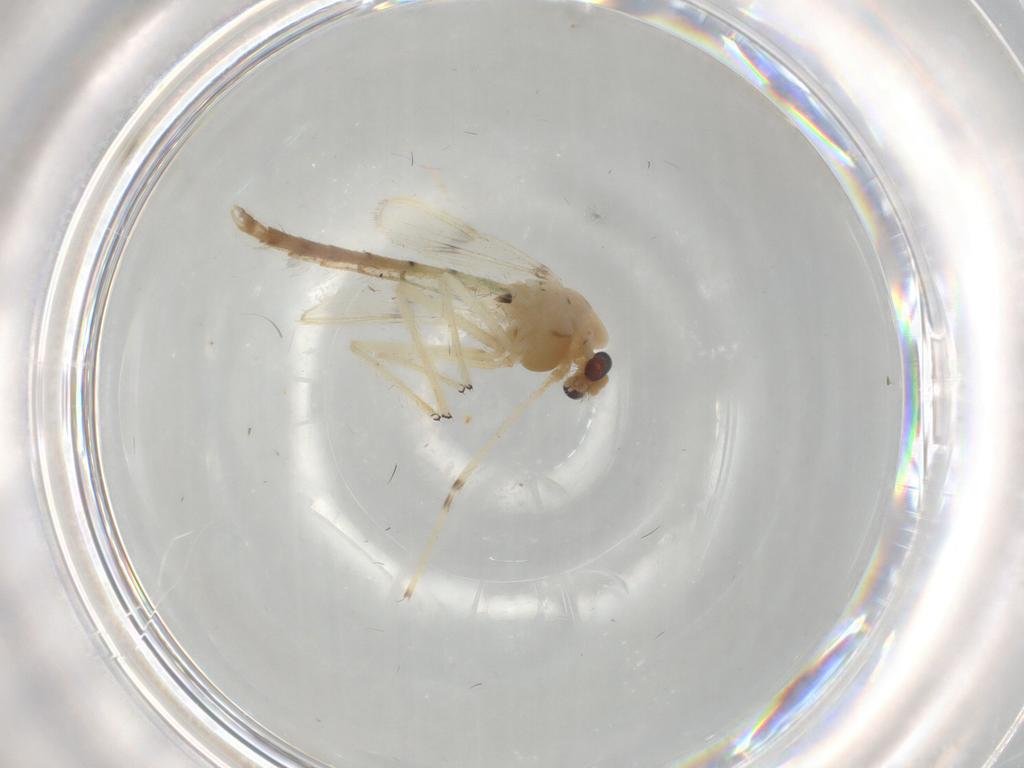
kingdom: Animalia
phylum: Arthropoda
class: Insecta
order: Diptera
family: Chironomidae
